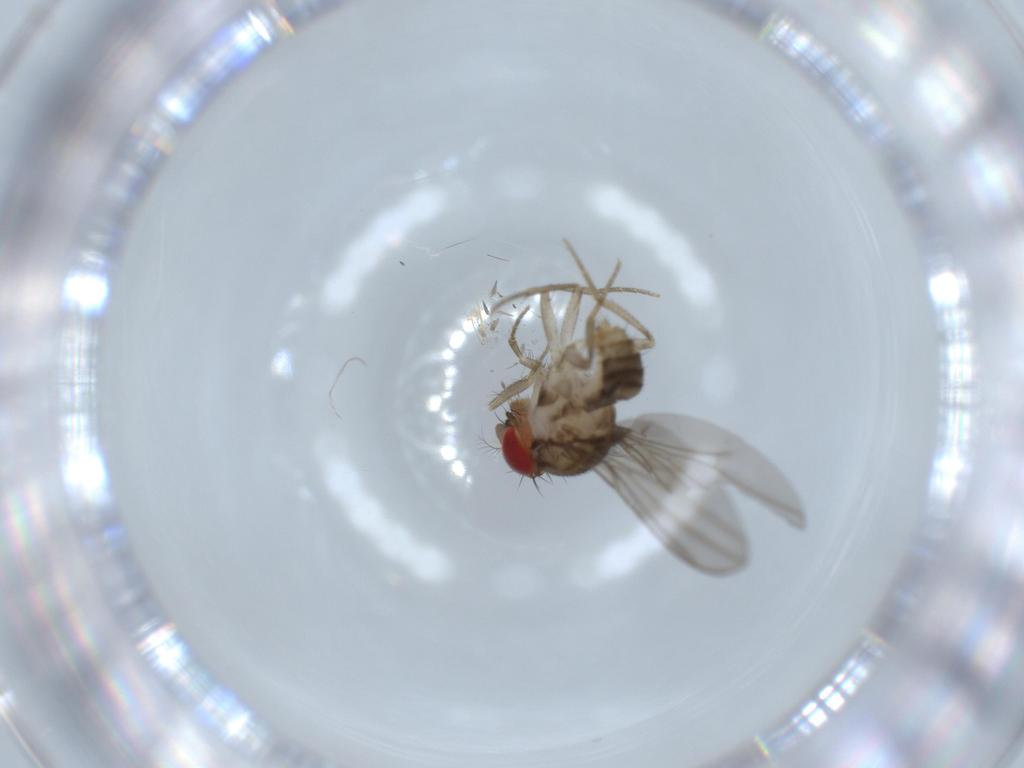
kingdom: Animalia
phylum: Arthropoda
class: Insecta
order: Diptera
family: Drosophilidae
